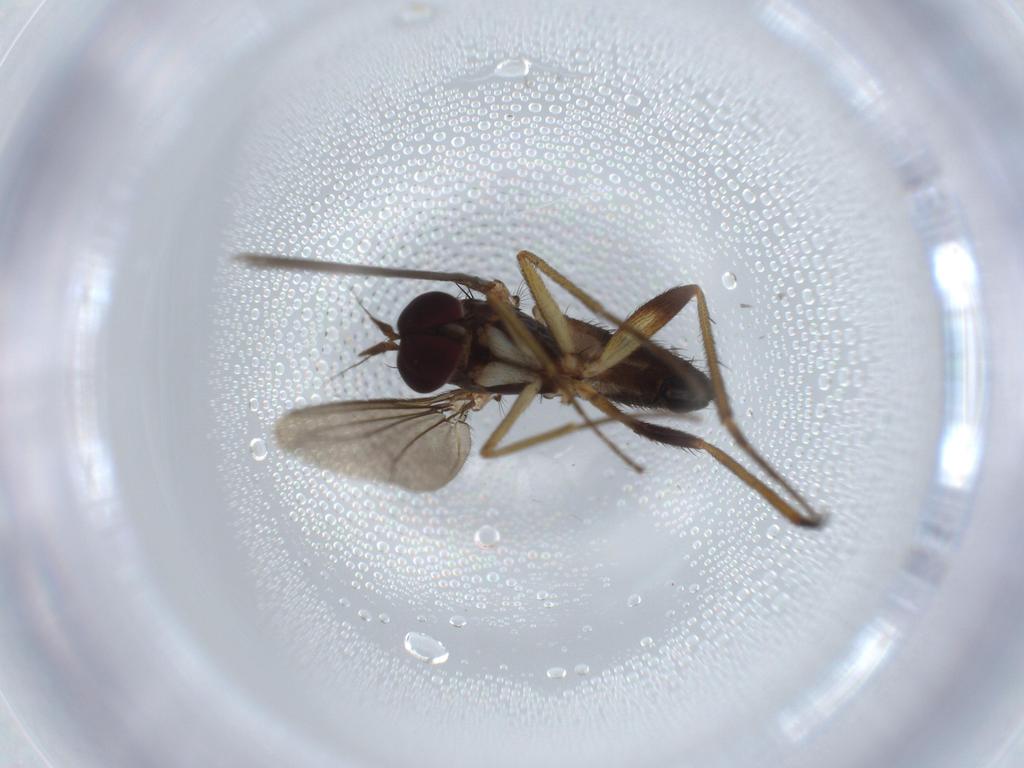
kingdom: Animalia
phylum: Arthropoda
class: Insecta
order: Diptera
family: Dolichopodidae
